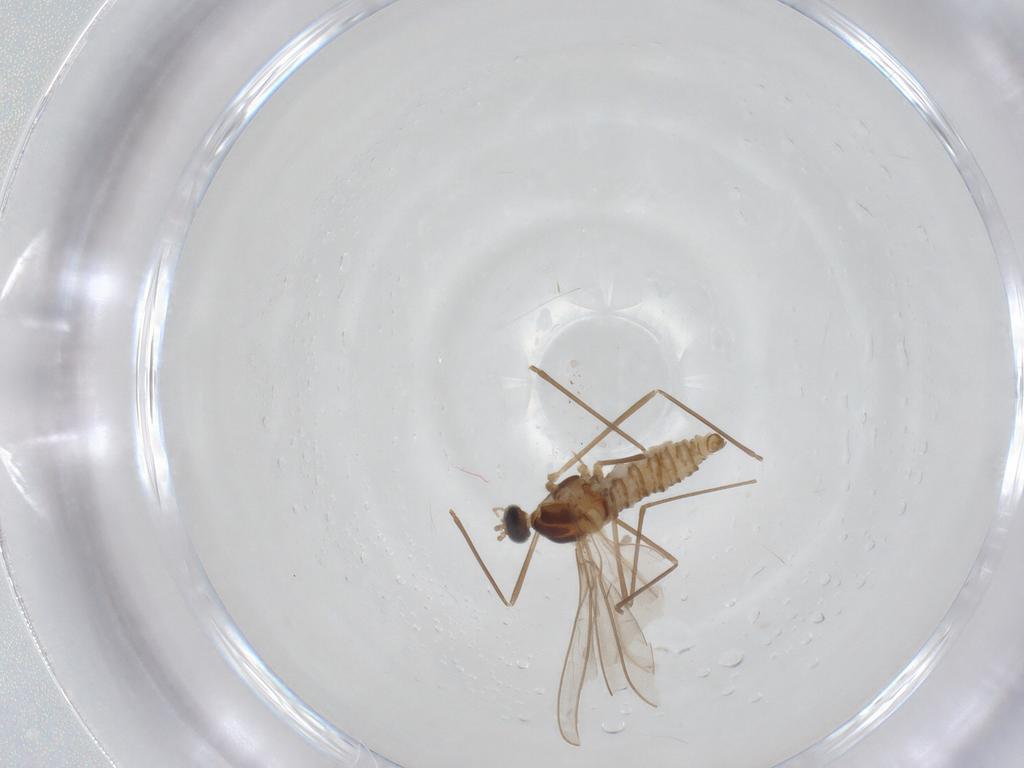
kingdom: Animalia
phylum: Arthropoda
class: Insecta
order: Diptera
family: Cecidomyiidae
